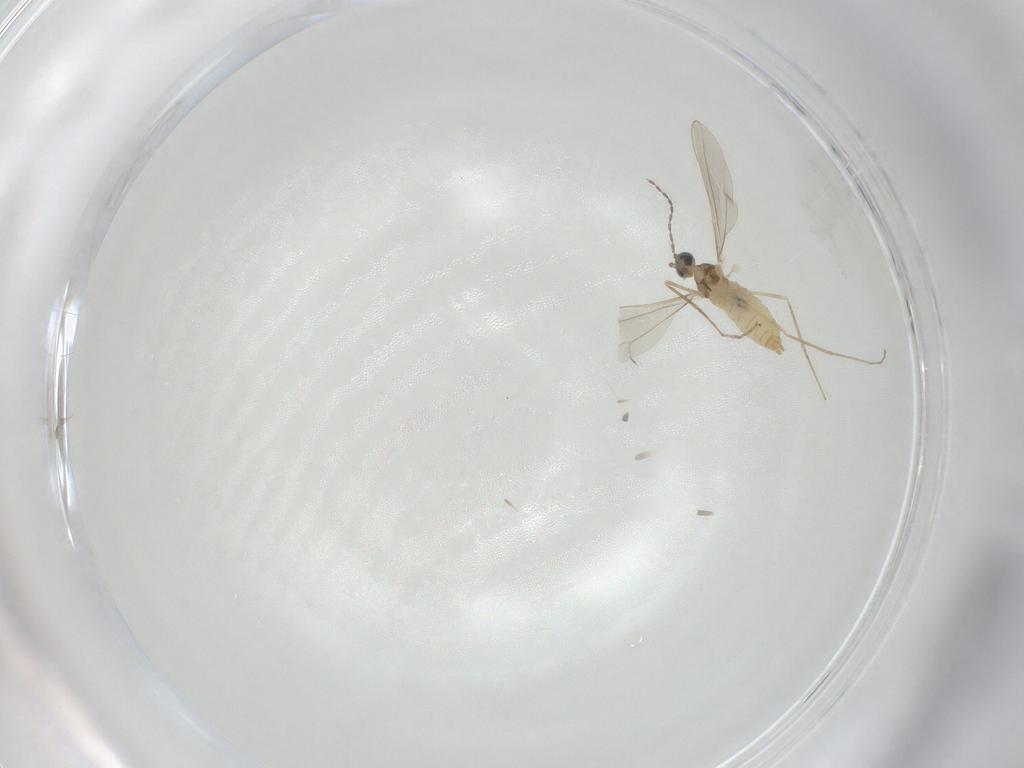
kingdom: Animalia
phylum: Arthropoda
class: Insecta
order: Diptera
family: Cecidomyiidae
